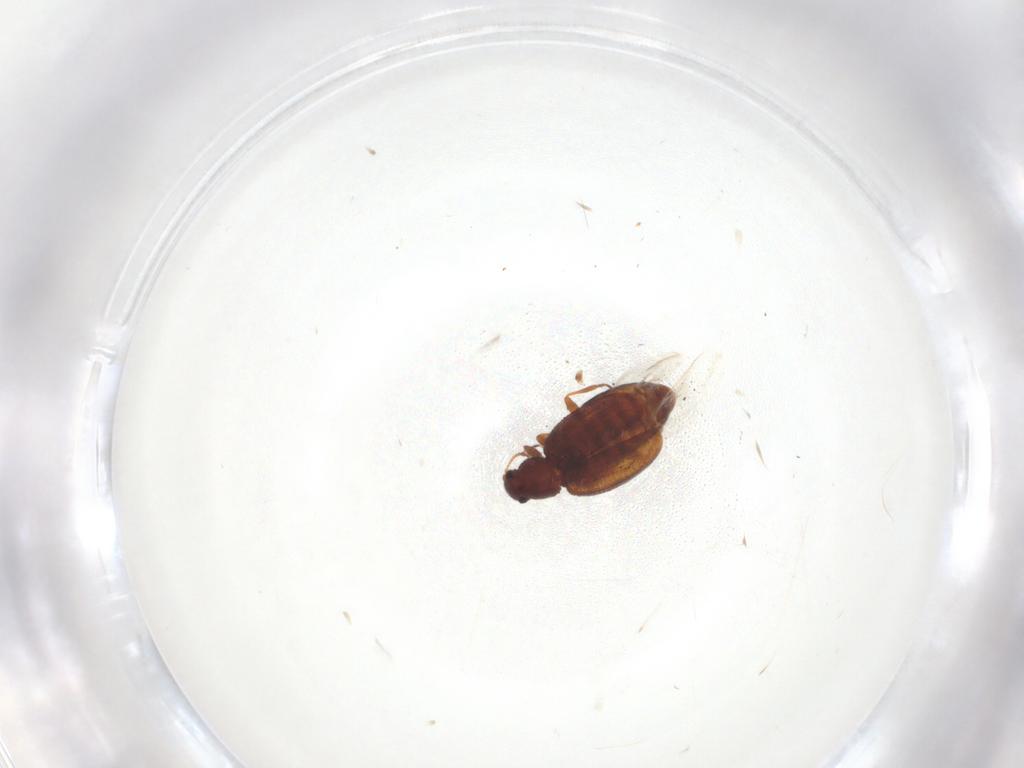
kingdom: Animalia
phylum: Arthropoda
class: Insecta
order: Coleoptera
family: Latridiidae
